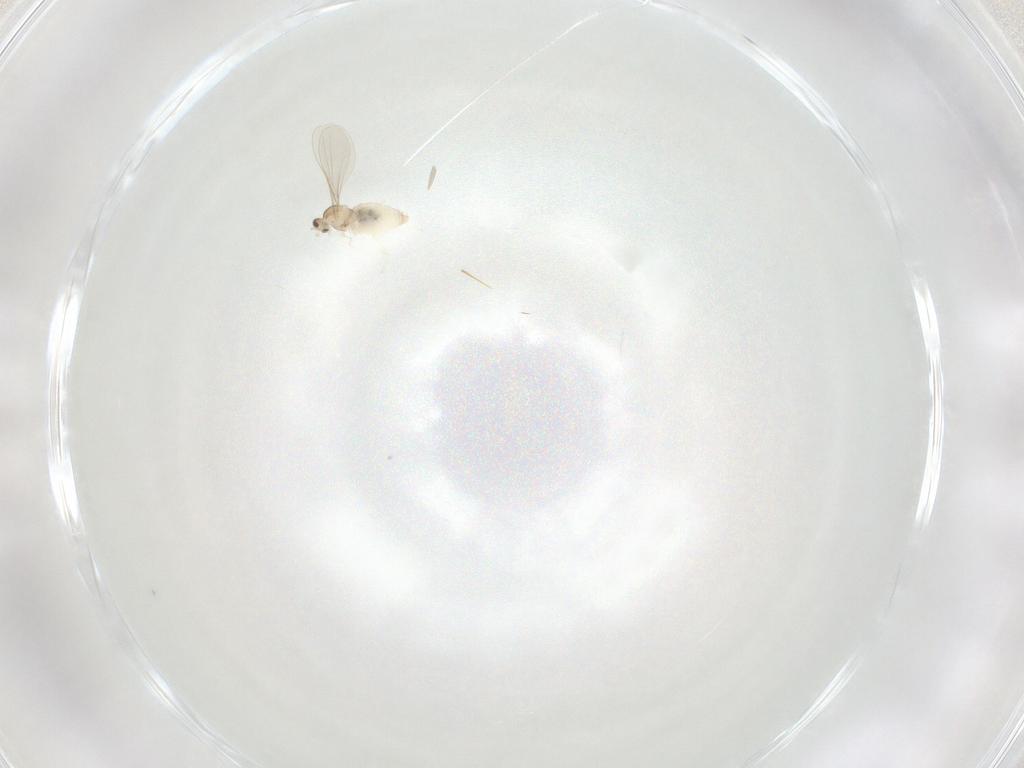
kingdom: Animalia
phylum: Arthropoda
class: Insecta
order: Diptera
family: Cecidomyiidae
